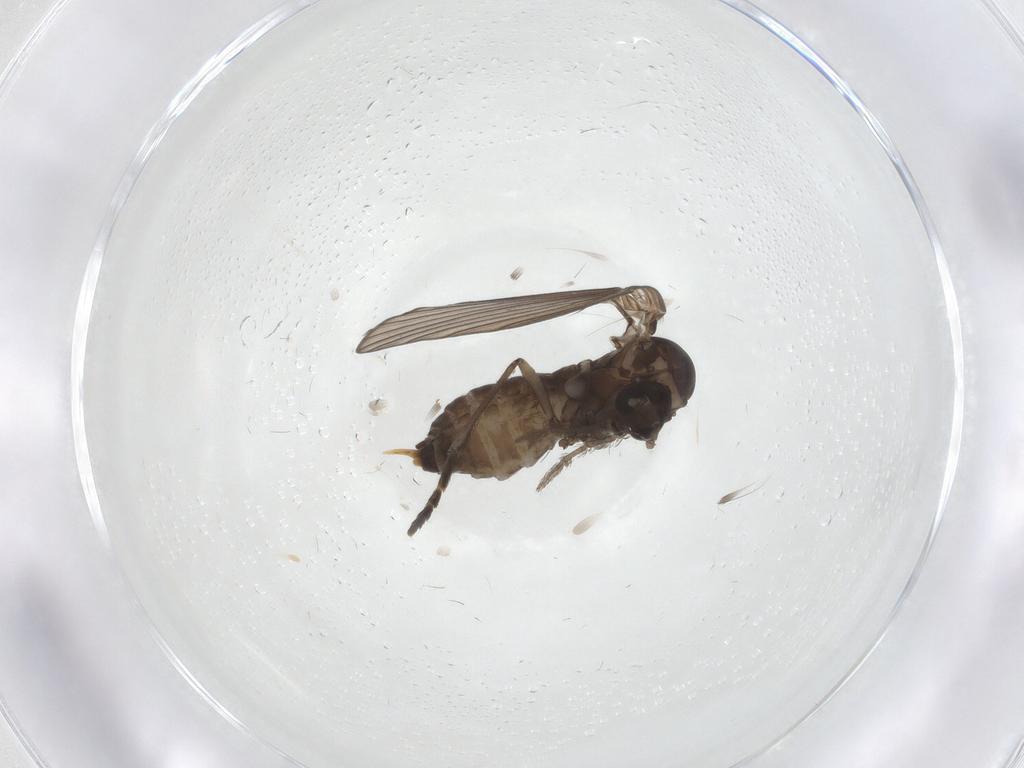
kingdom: Animalia
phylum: Arthropoda
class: Insecta
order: Diptera
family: Psychodidae
